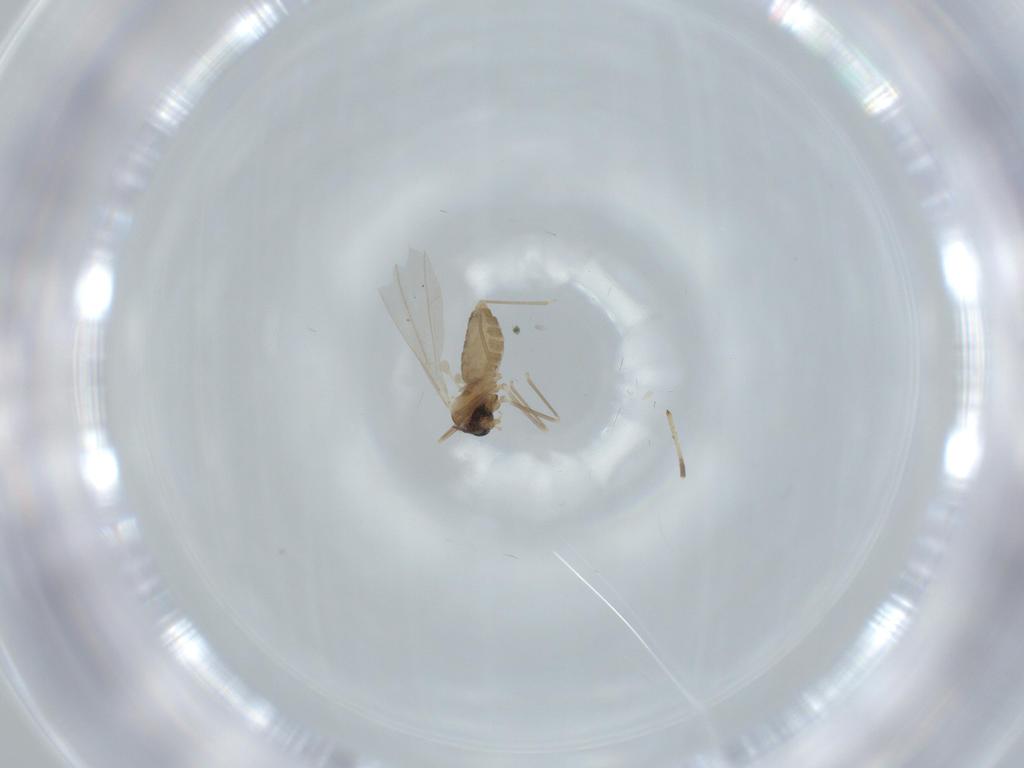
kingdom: Animalia
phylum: Arthropoda
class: Insecta
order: Diptera
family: Cecidomyiidae
